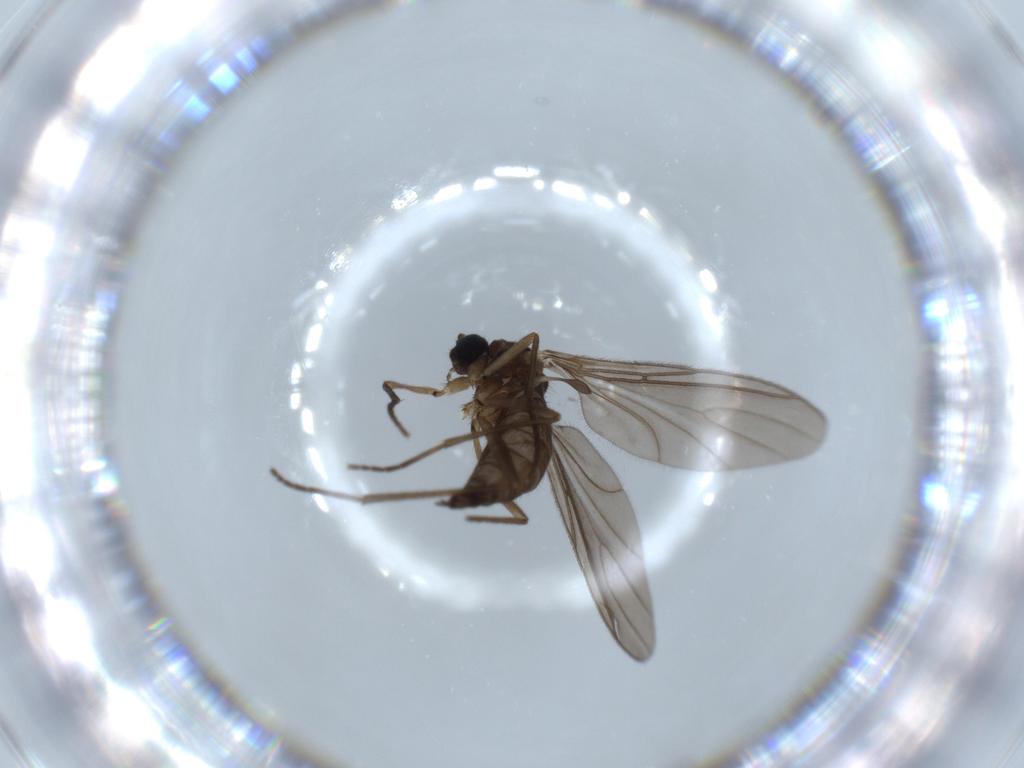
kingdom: Animalia
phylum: Arthropoda
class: Insecta
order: Diptera
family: Sciaridae
